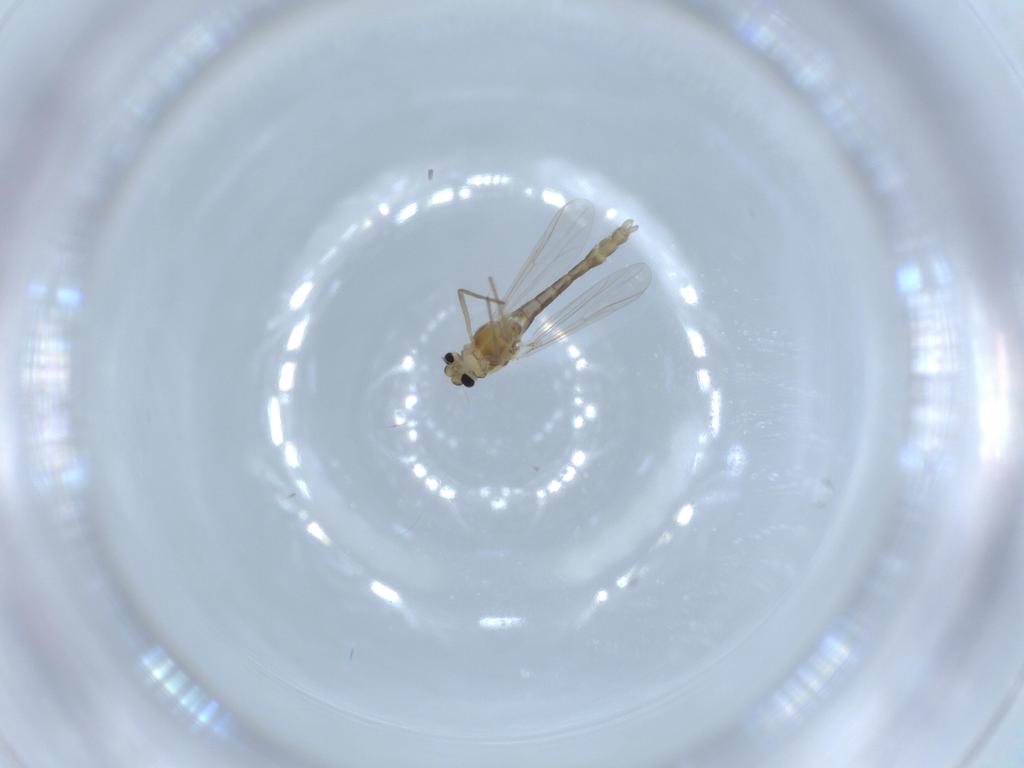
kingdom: Animalia
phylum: Arthropoda
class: Insecta
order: Diptera
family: Chironomidae
